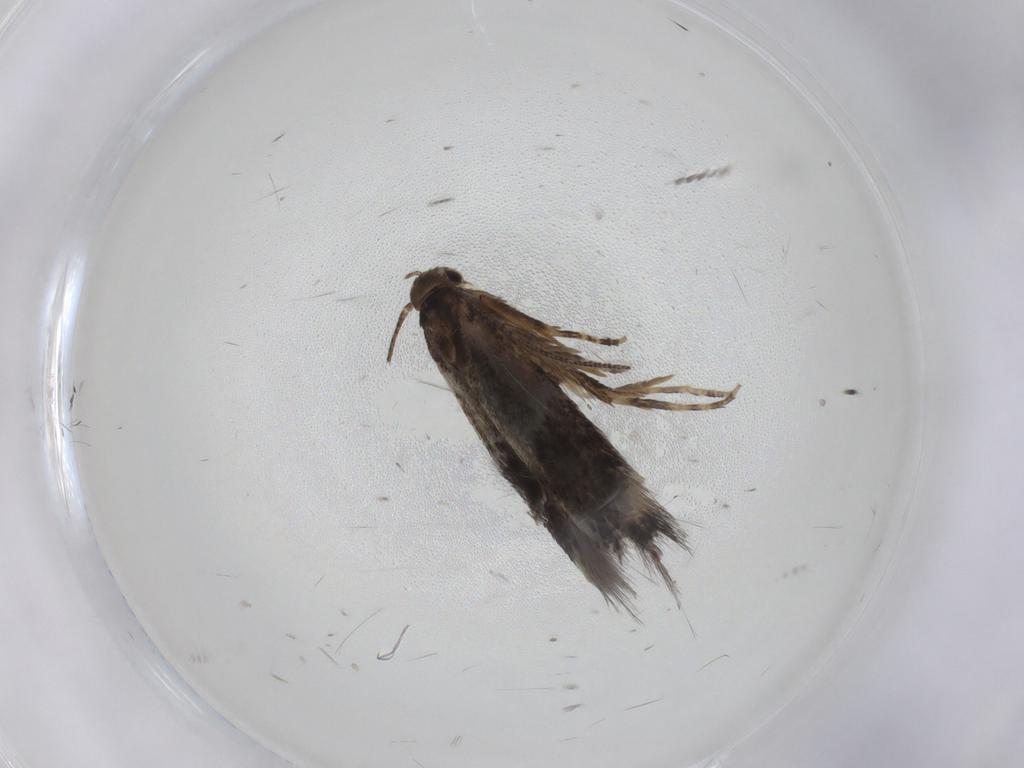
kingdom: Animalia
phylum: Arthropoda
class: Insecta
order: Lepidoptera
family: Elachistidae
